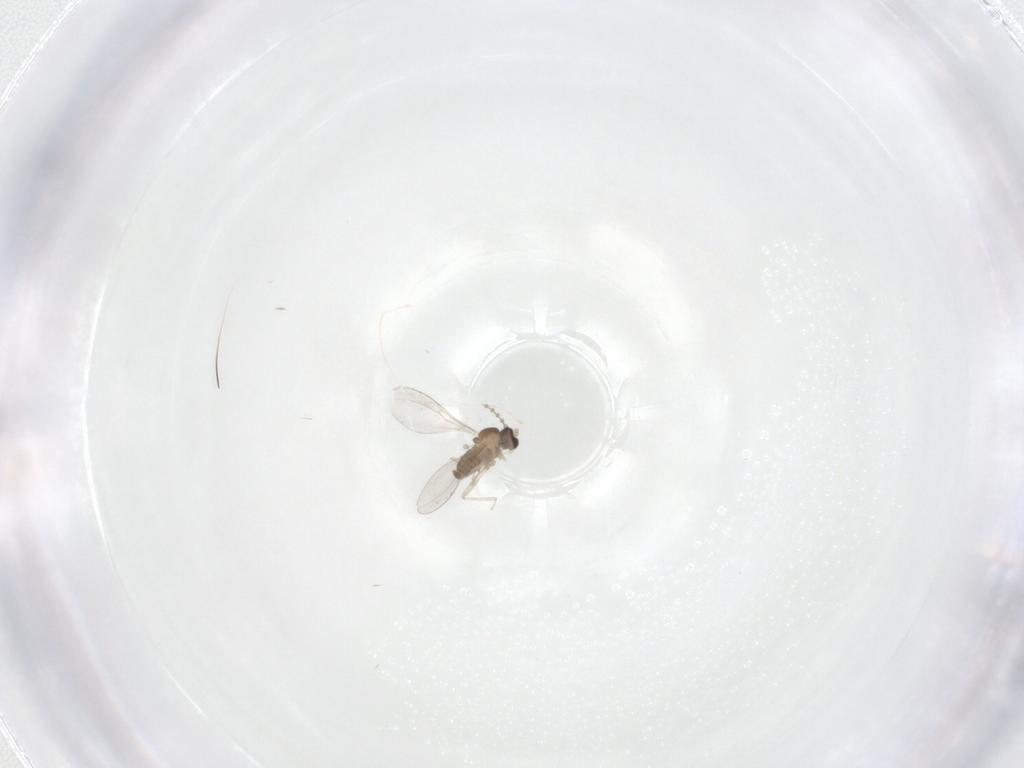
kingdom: Animalia
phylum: Arthropoda
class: Insecta
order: Diptera
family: Cecidomyiidae
